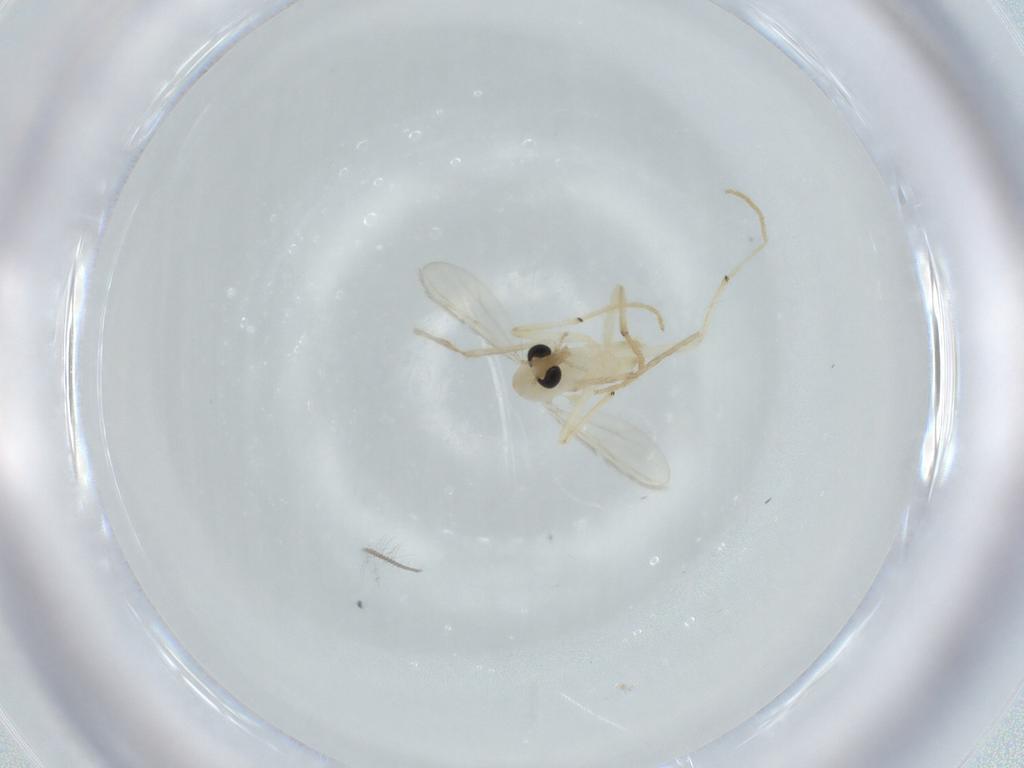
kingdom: Animalia
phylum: Arthropoda
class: Insecta
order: Diptera
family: Chironomidae
